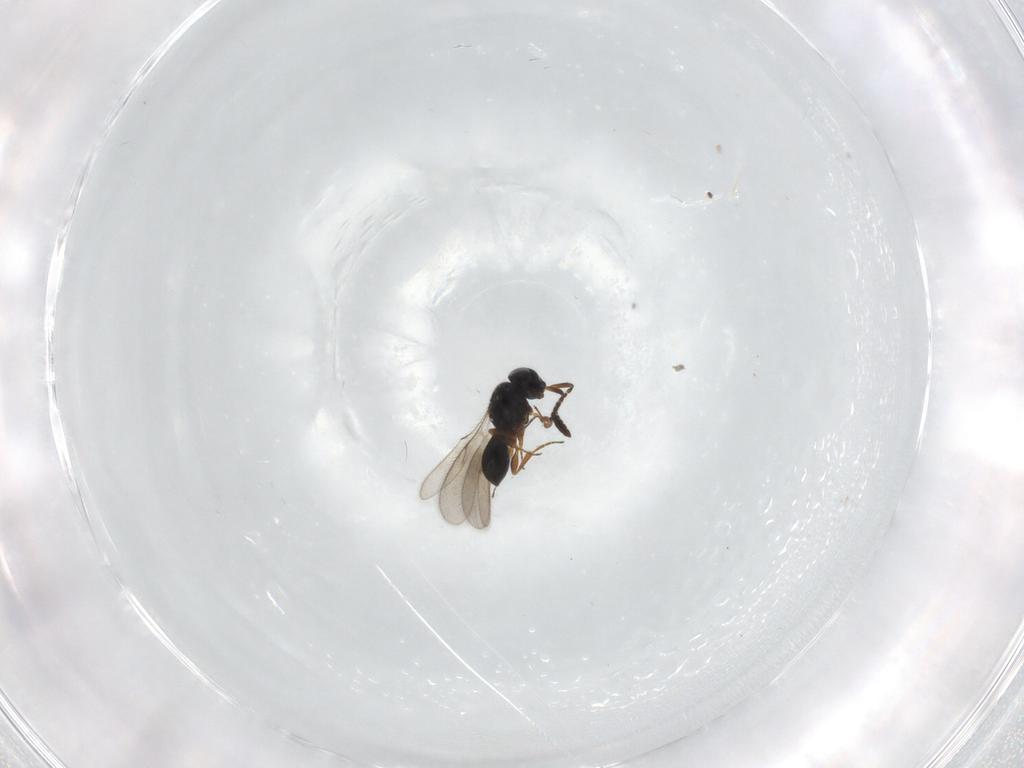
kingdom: Animalia
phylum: Arthropoda
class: Insecta
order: Hymenoptera
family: Scelionidae
